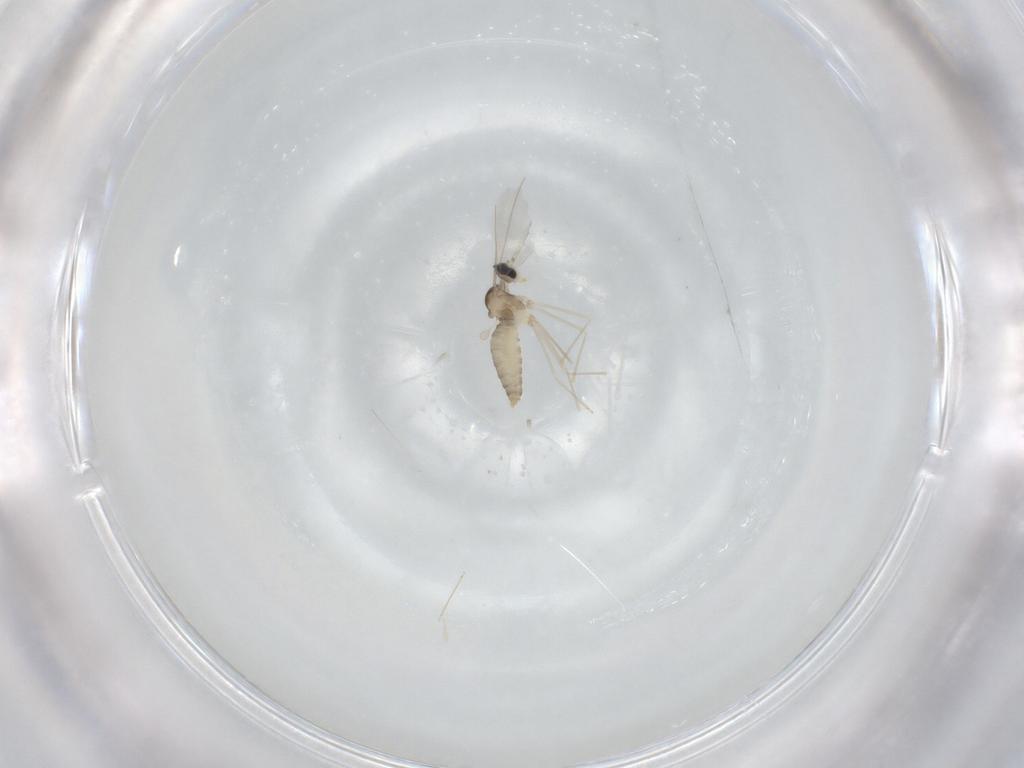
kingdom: Animalia
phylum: Arthropoda
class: Insecta
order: Diptera
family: Cecidomyiidae
